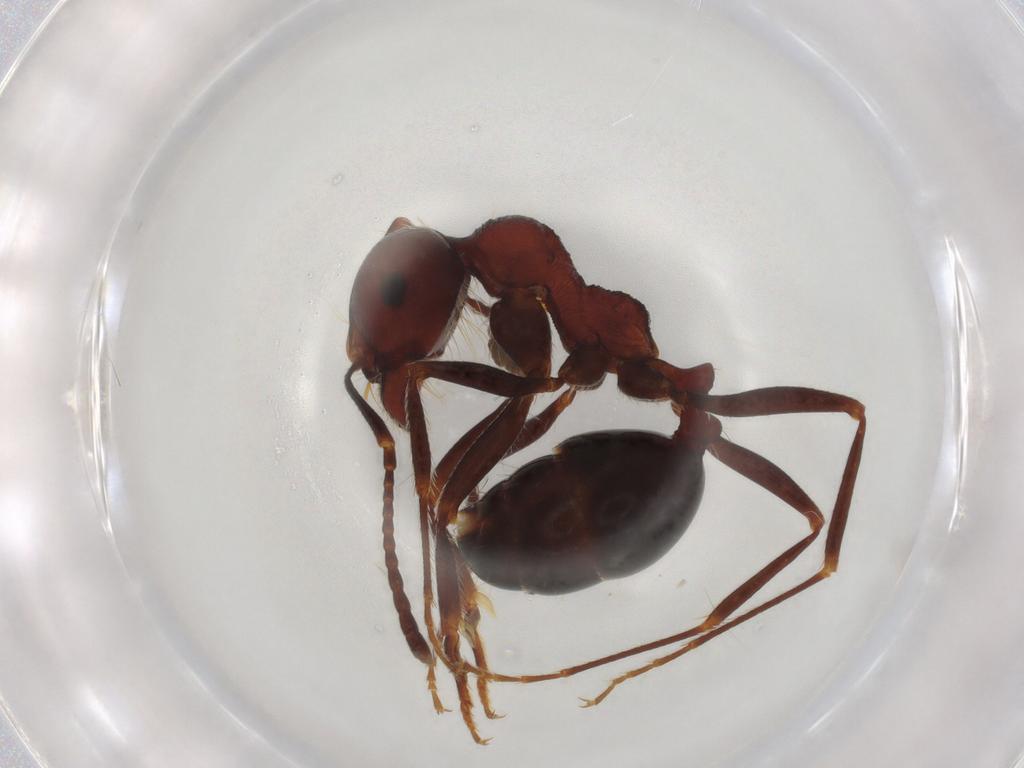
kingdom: Animalia
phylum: Arthropoda
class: Insecta
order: Hymenoptera
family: Formicidae
